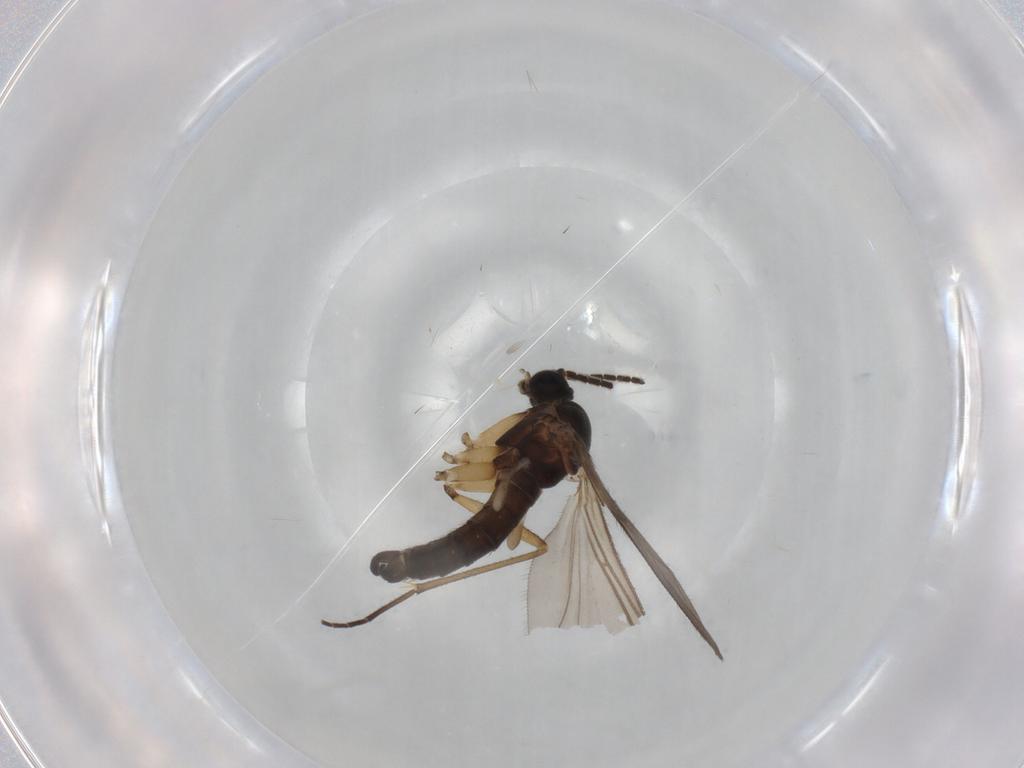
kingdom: Animalia
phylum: Arthropoda
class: Insecta
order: Diptera
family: Sciaridae
